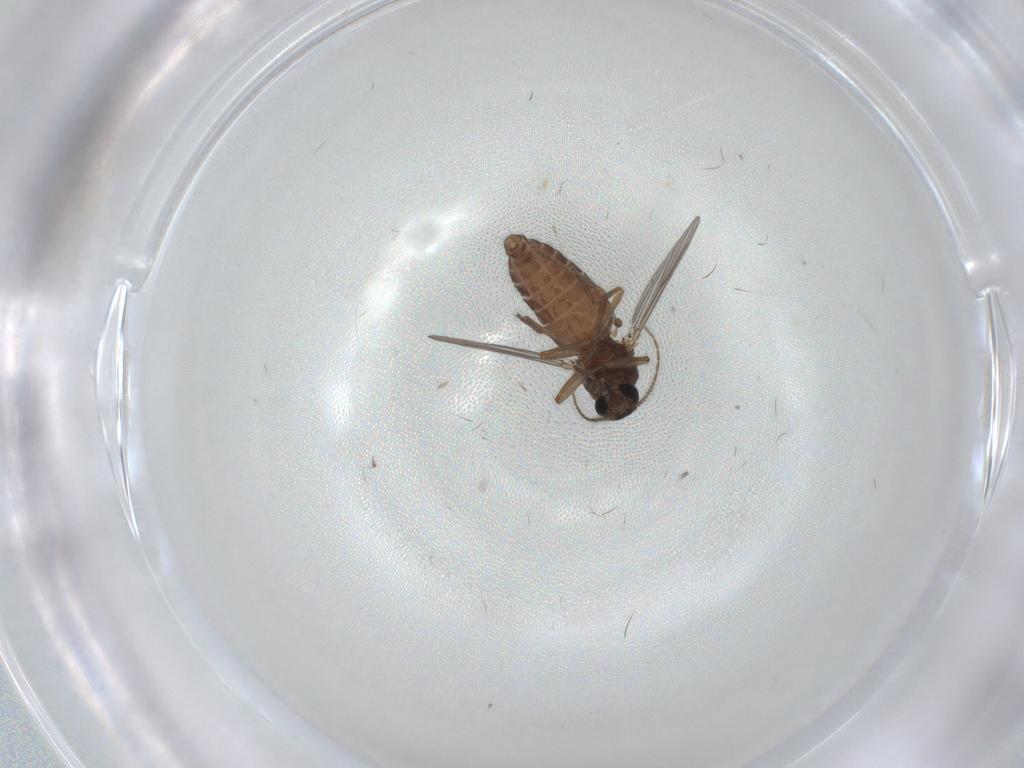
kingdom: Animalia
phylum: Arthropoda
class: Insecta
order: Diptera
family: Ceratopogonidae
